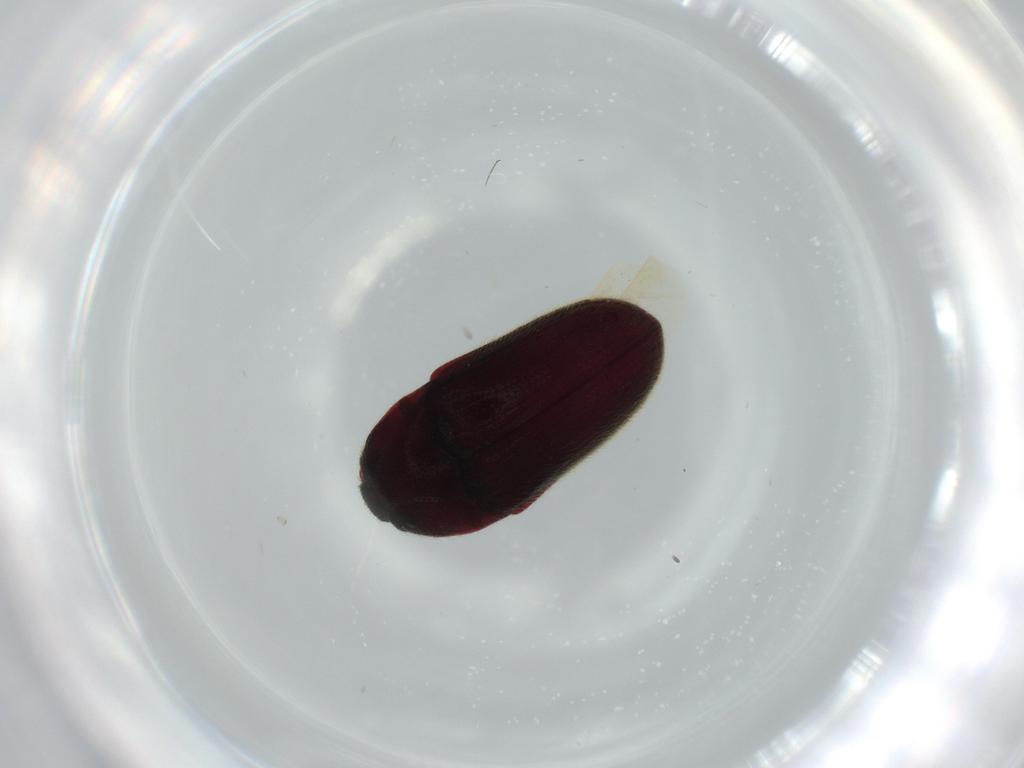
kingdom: Animalia
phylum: Arthropoda
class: Insecta
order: Coleoptera
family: Throscidae
